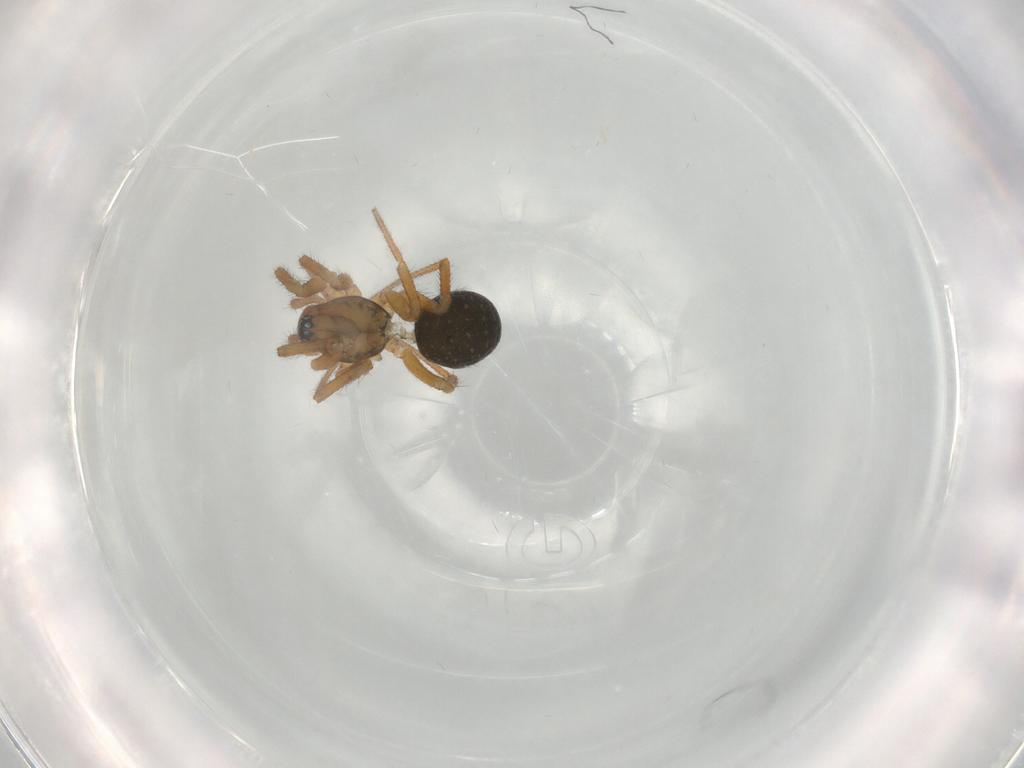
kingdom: Animalia
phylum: Arthropoda
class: Arachnida
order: Araneae
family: Linyphiidae
